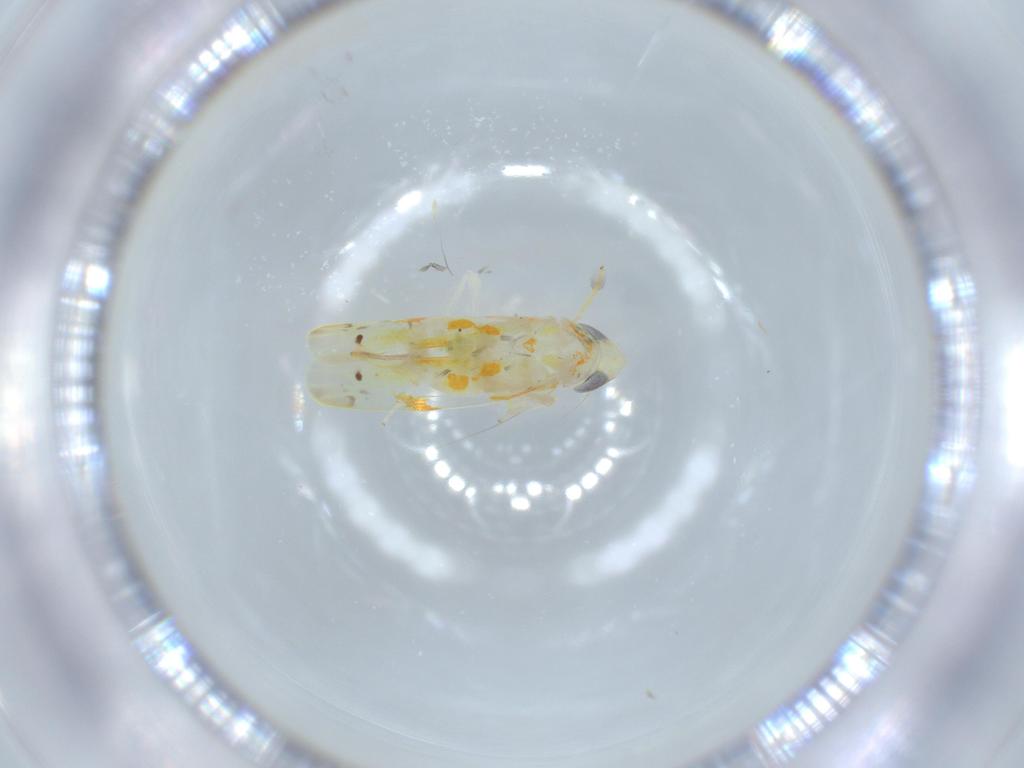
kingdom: Animalia
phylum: Arthropoda
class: Insecta
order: Hemiptera
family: Cicadellidae
